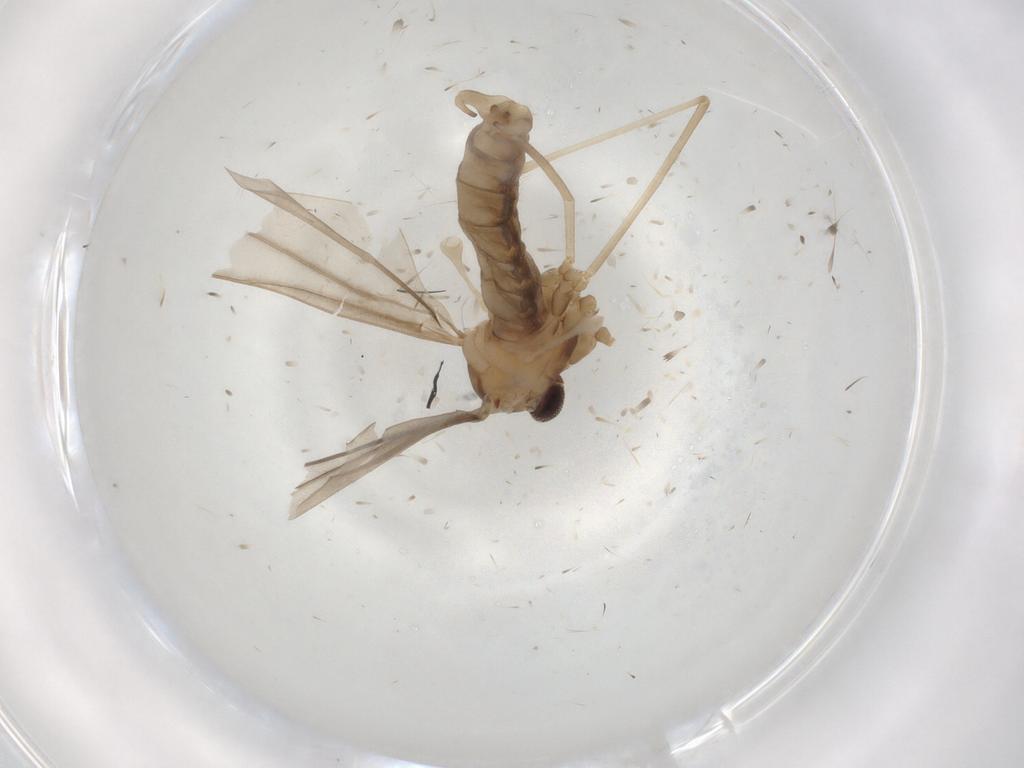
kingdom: Animalia
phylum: Arthropoda
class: Insecta
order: Diptera
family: Cecidomyiidae
